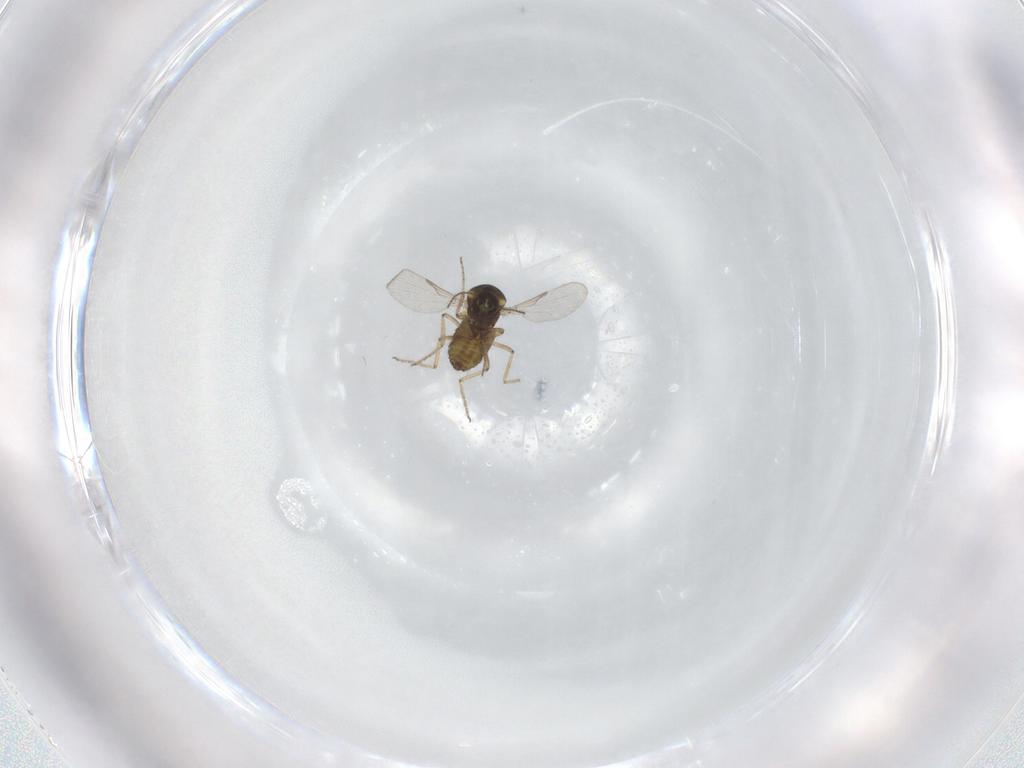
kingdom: Animalia
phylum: Arthropoda
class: Insecta
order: Diptera
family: Ceratopogonidae
